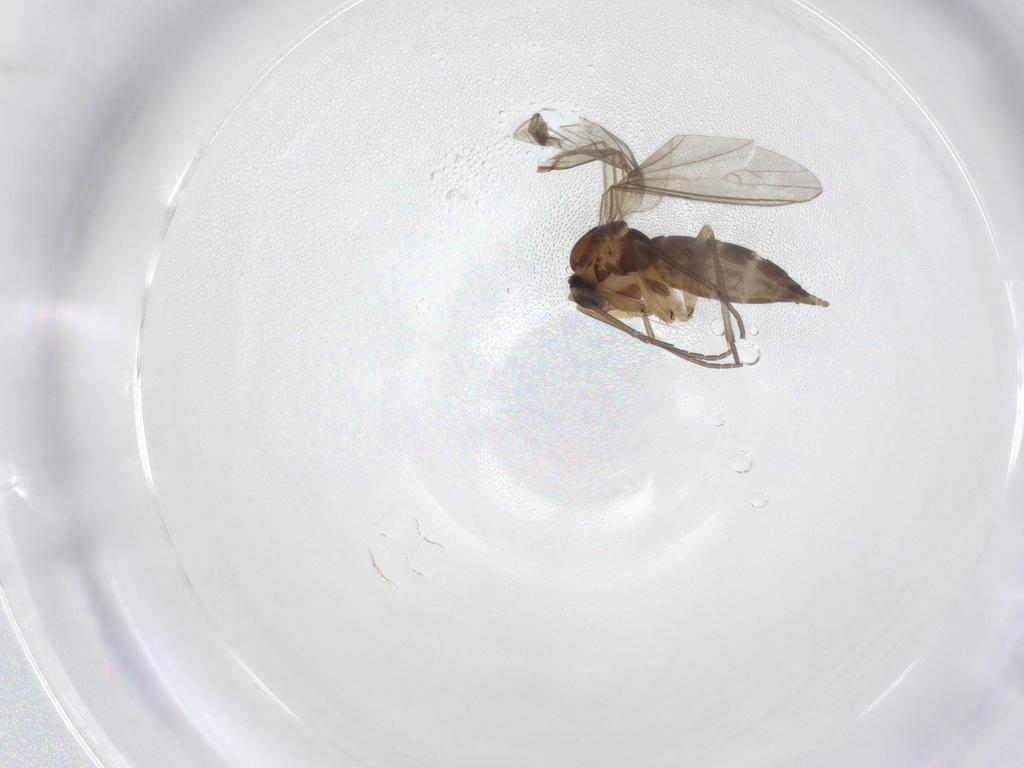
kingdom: Animalia
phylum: Arthropoda
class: Insecta
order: Diptera
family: Sciaridae
